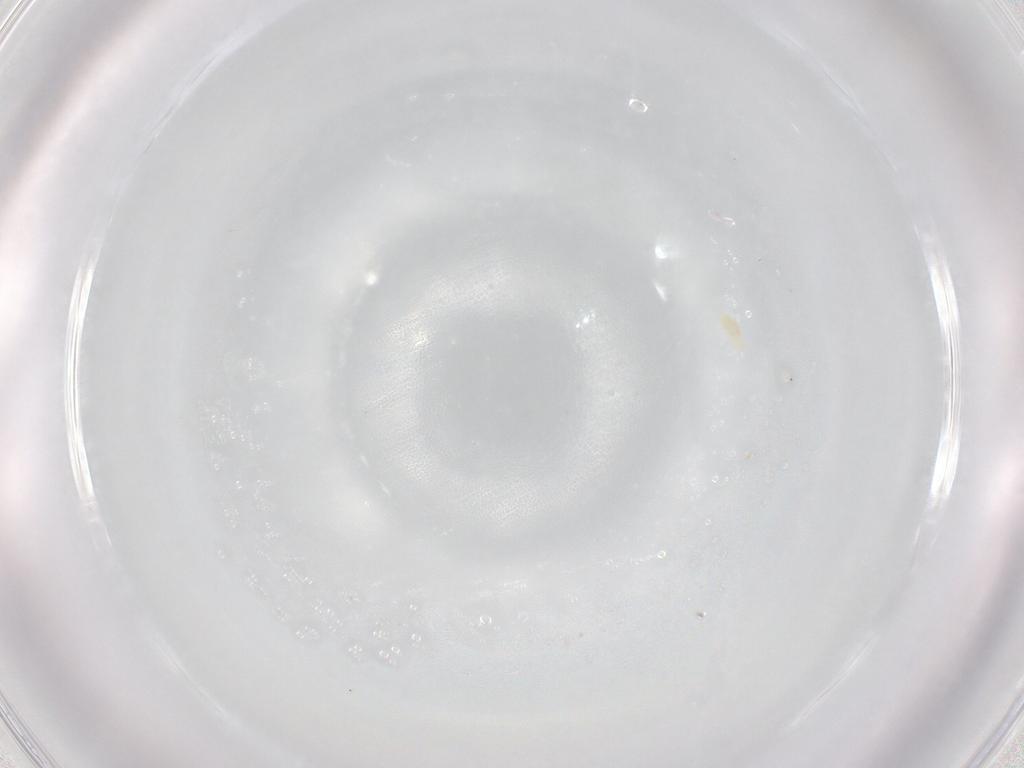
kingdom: Animalia
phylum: Arthropoda
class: Arachnida
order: Trombidiformes
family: Eupodidae
